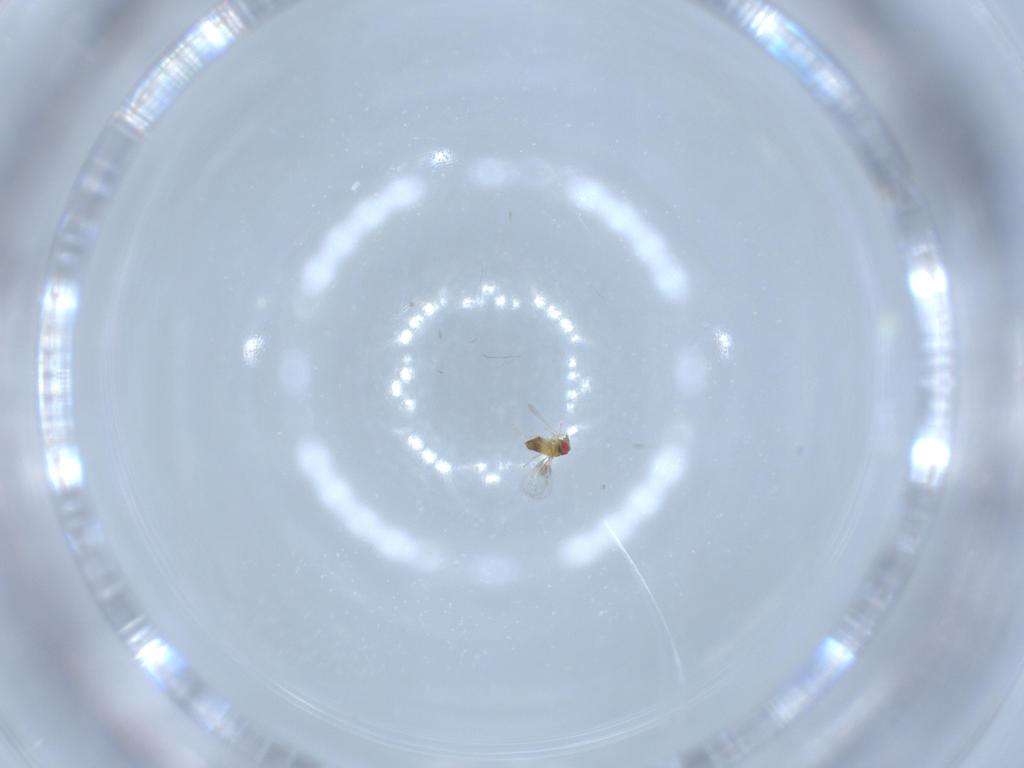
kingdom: Animalia
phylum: Arthropoda
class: Insecta
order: Hymenoptera
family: Trichogrammatidae
